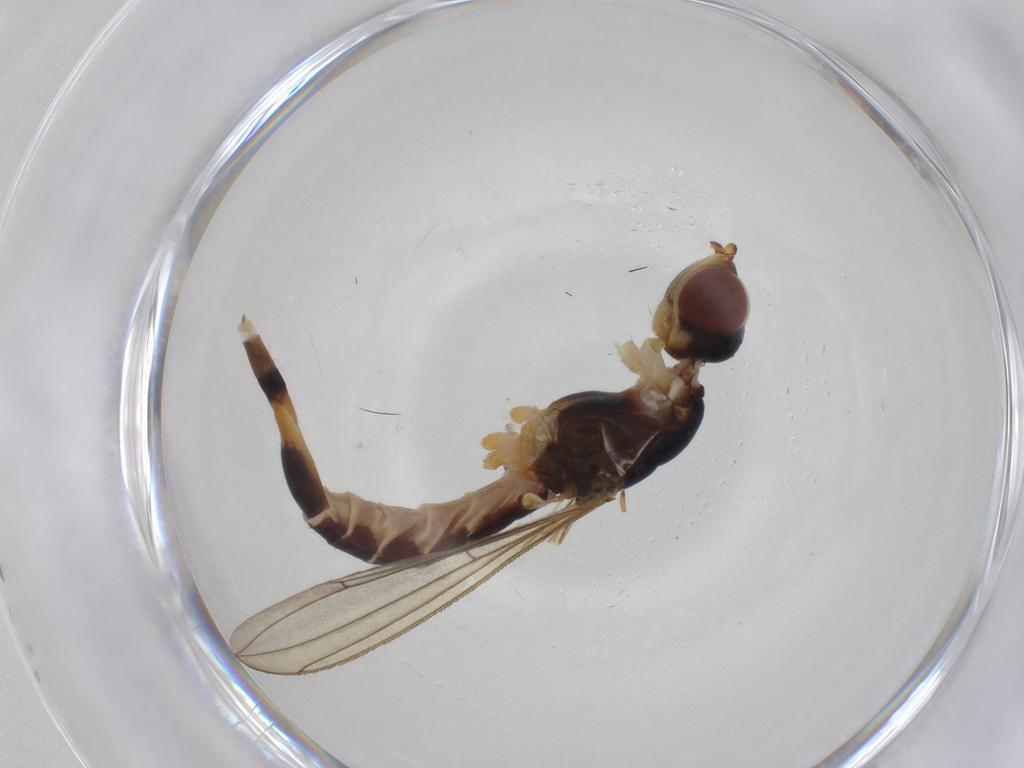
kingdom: Animalia
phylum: Arthropoda
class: Insecta
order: Diptera
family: Micropezidae
